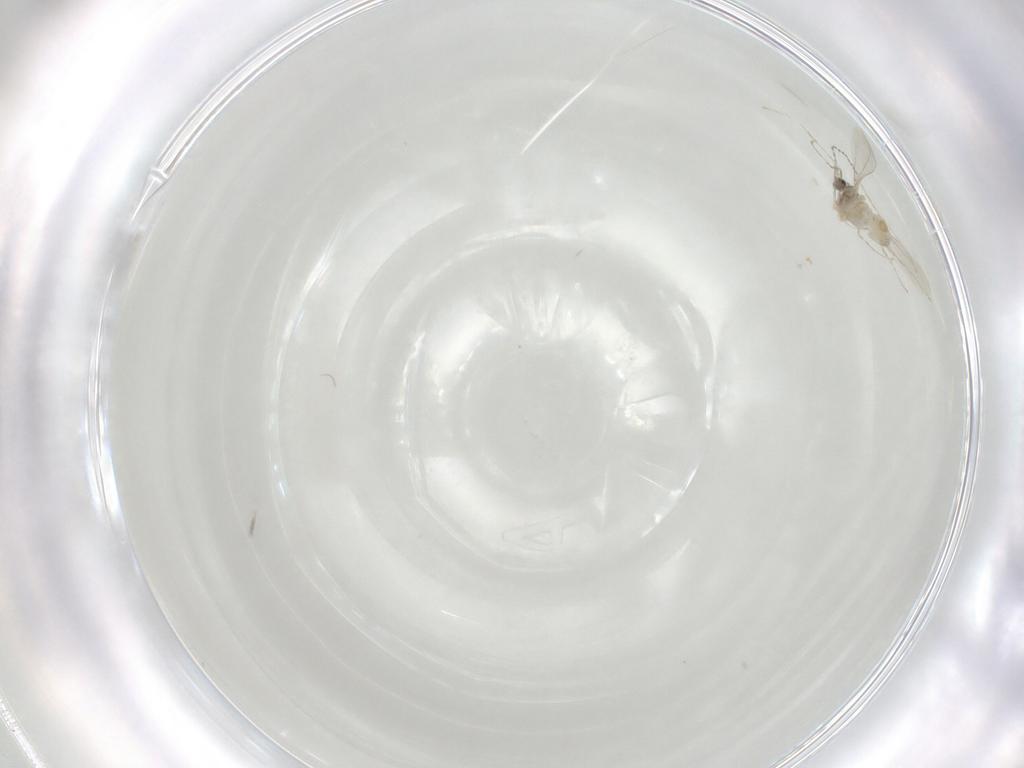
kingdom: Animalia
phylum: Arthropoda
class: Insecta
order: Diptera
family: Cecidomyiidae
